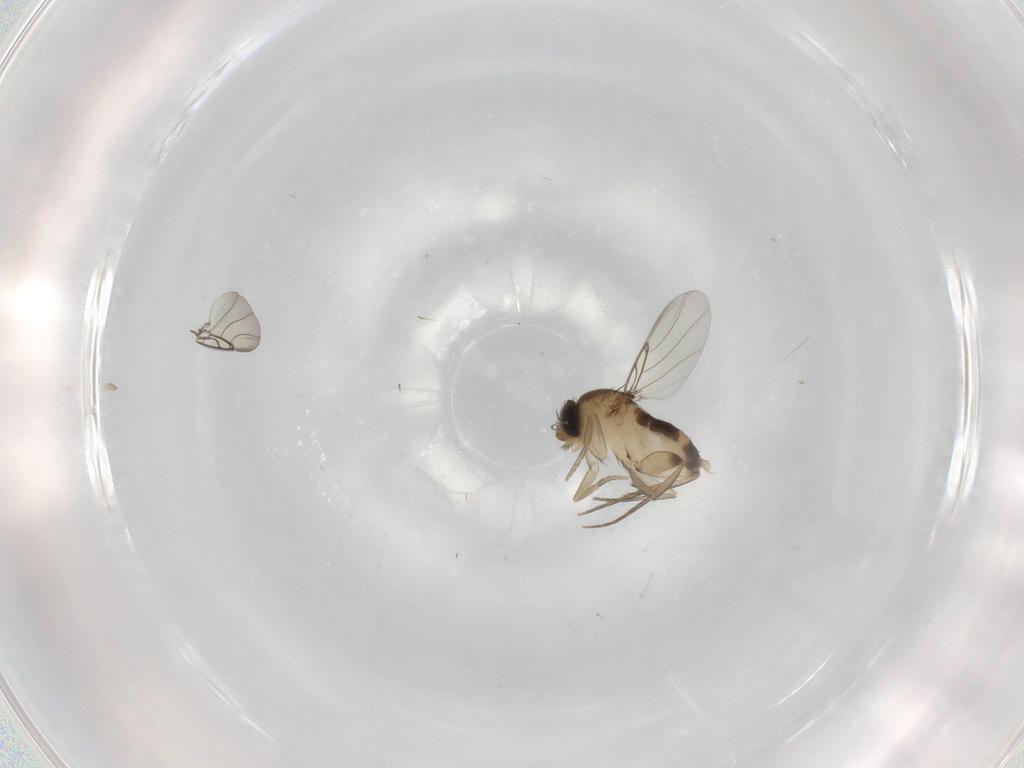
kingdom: Animalia
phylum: Arthropoda
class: Insecta
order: Diptera
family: Phoridae
